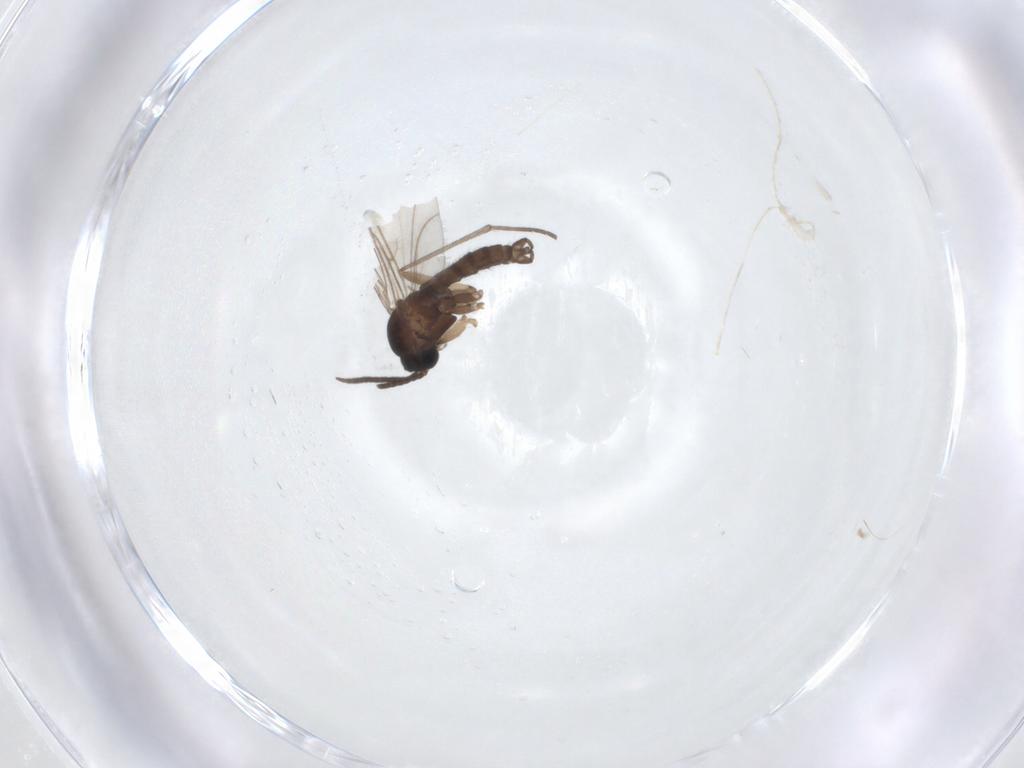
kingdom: Animalia
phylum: Arthropoda
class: Insecta
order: Diptera
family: Sciaridae
